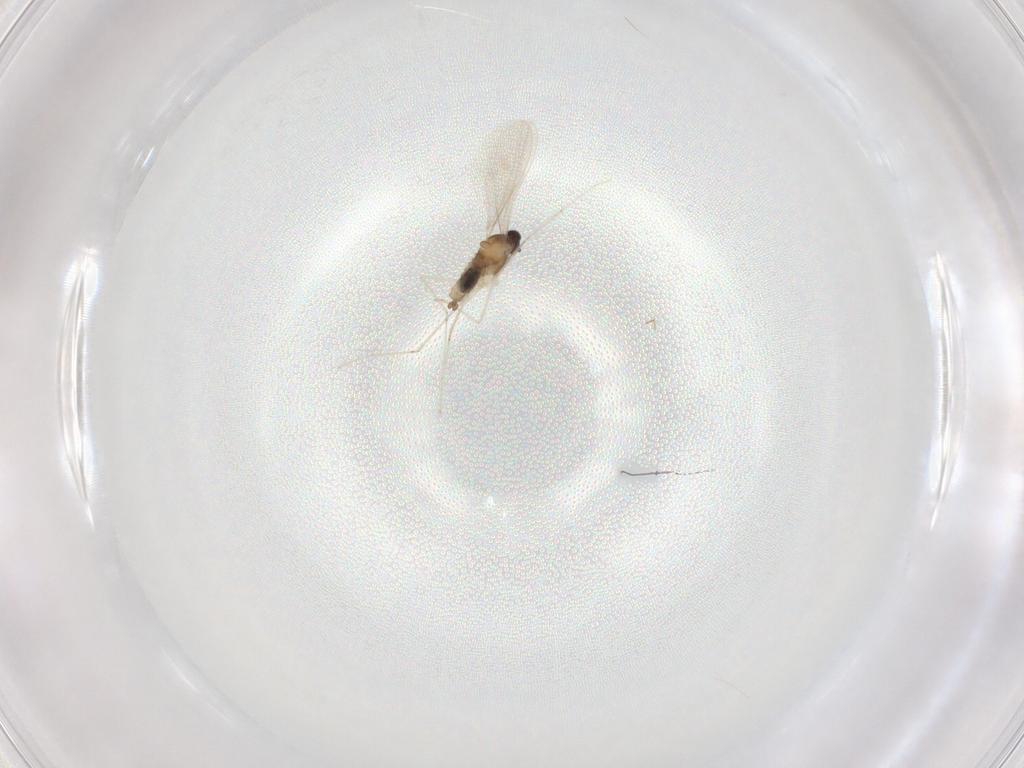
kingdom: Animalia
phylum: Arthropoda
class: Insecta
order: Diptera
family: Cecidomyiidae
